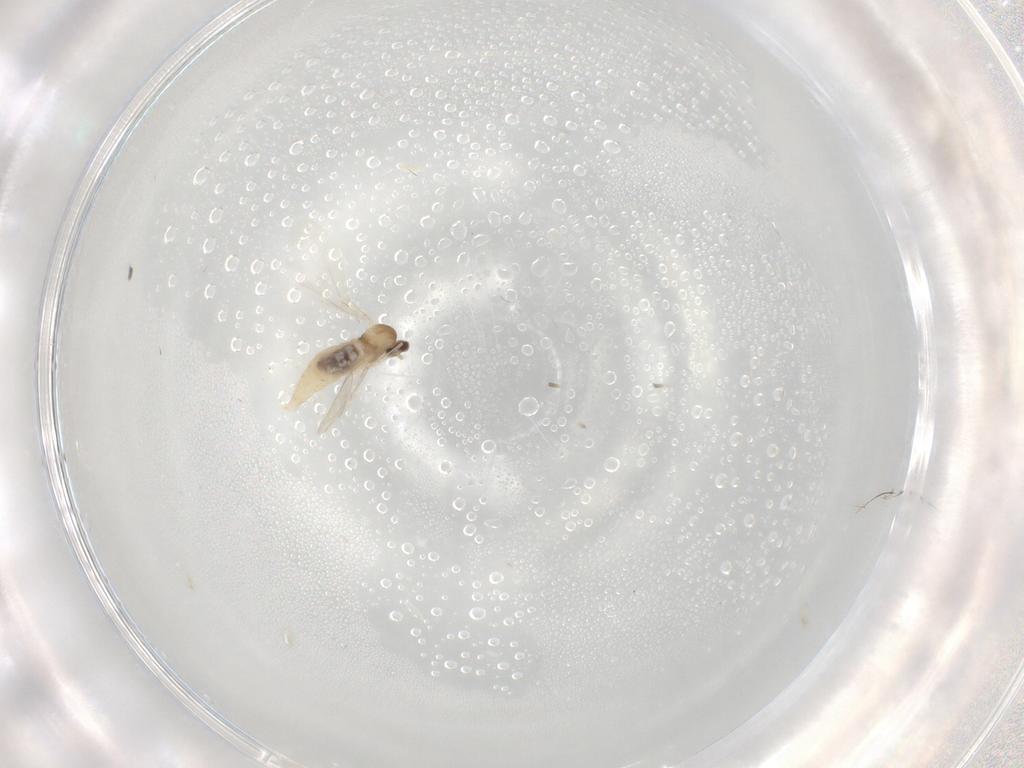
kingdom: Animalia
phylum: Arthropoda
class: Insecta
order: Diptera
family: Cecidomyiidae
